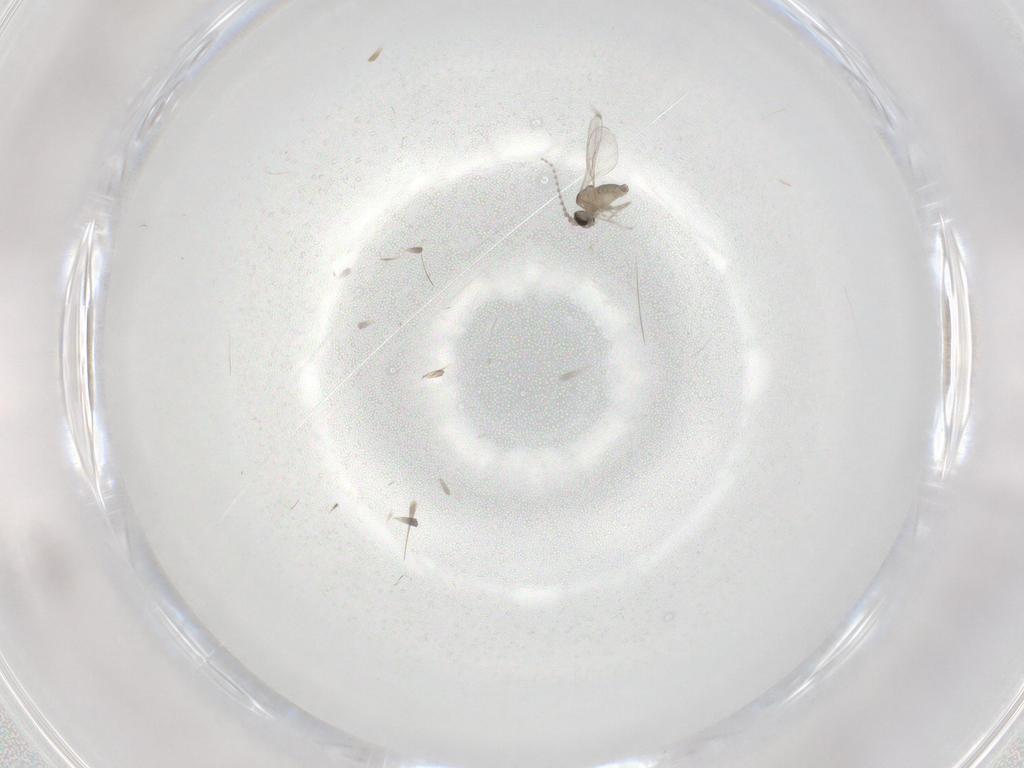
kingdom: Animalia
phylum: Arthropoda
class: Insecta
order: Diptera
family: Cecidomyiidae
